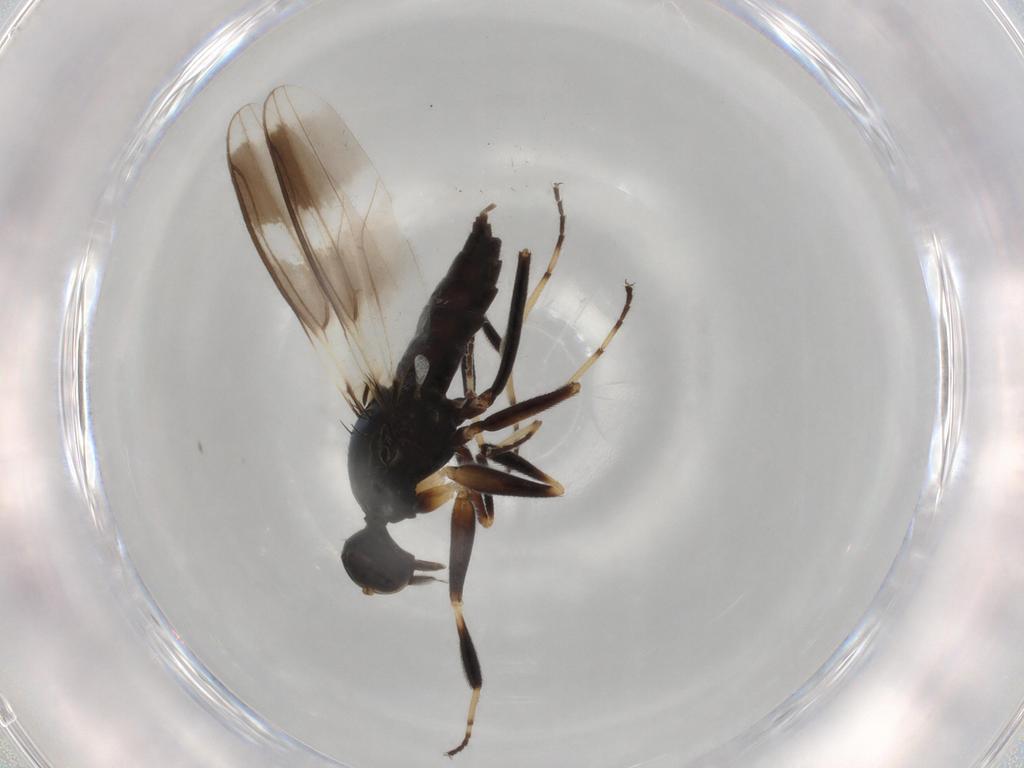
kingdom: Animalia
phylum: Arthropoda
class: Insecta
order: Diptera
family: Hybotidae
